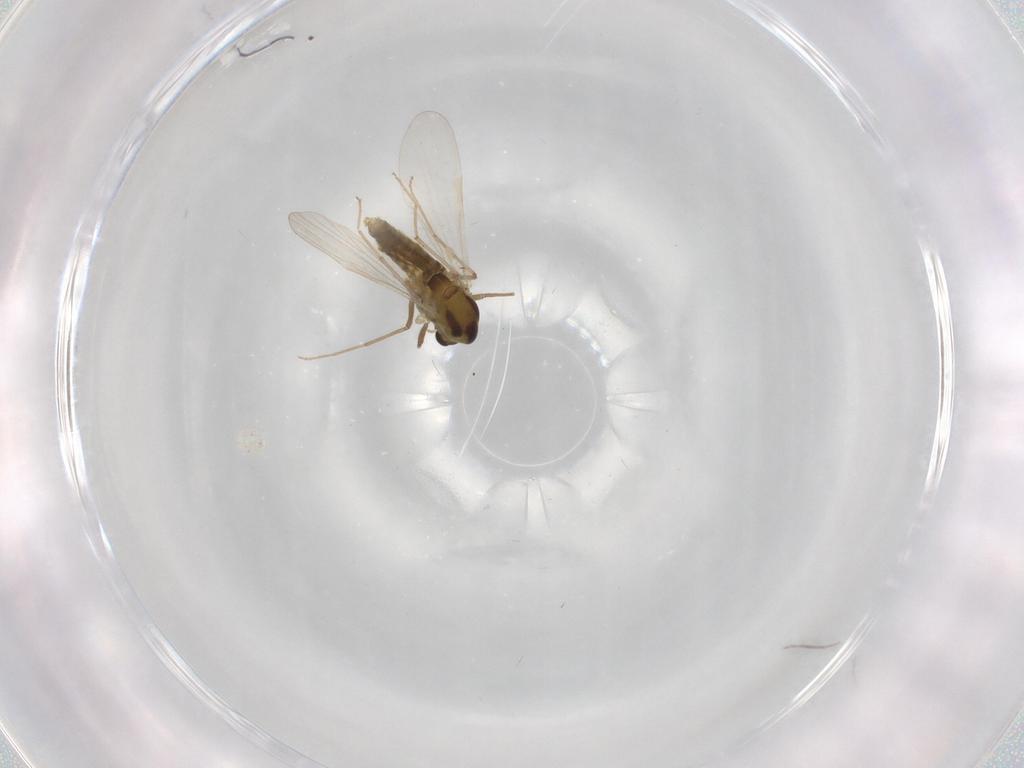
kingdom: Animalia
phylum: Arthropoda
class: Insecta
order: Diptera
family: Chironomidae
